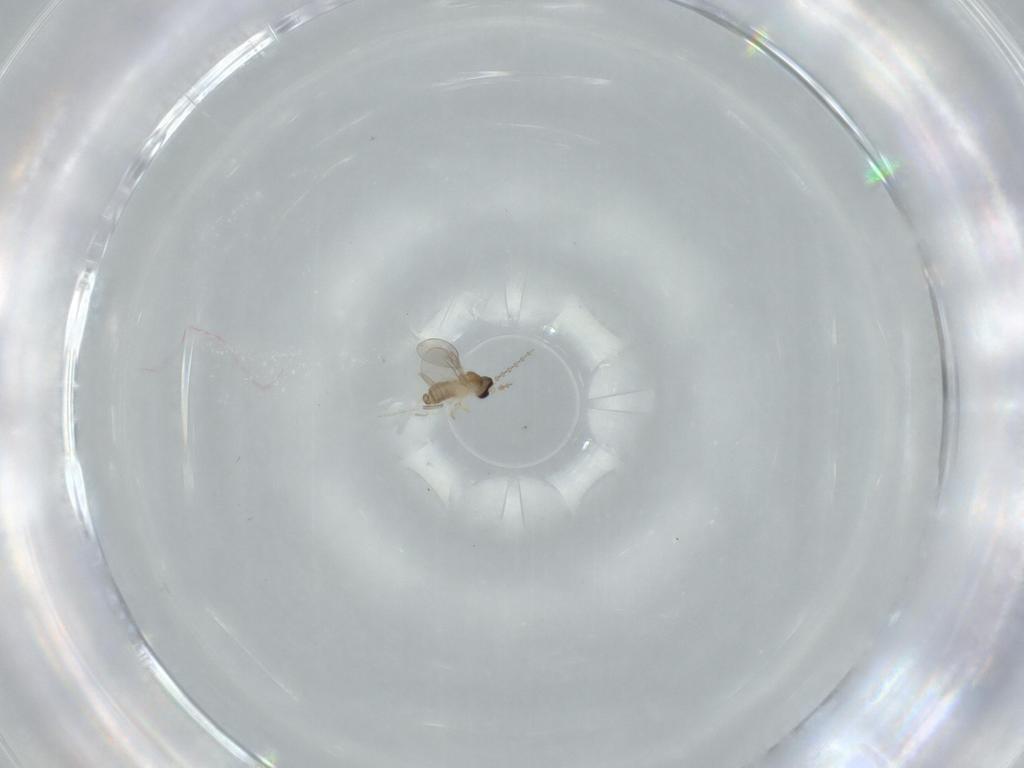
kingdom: Animalia
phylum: Arthropoda
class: Insecta
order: Diptera
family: Cecidomyiidae
